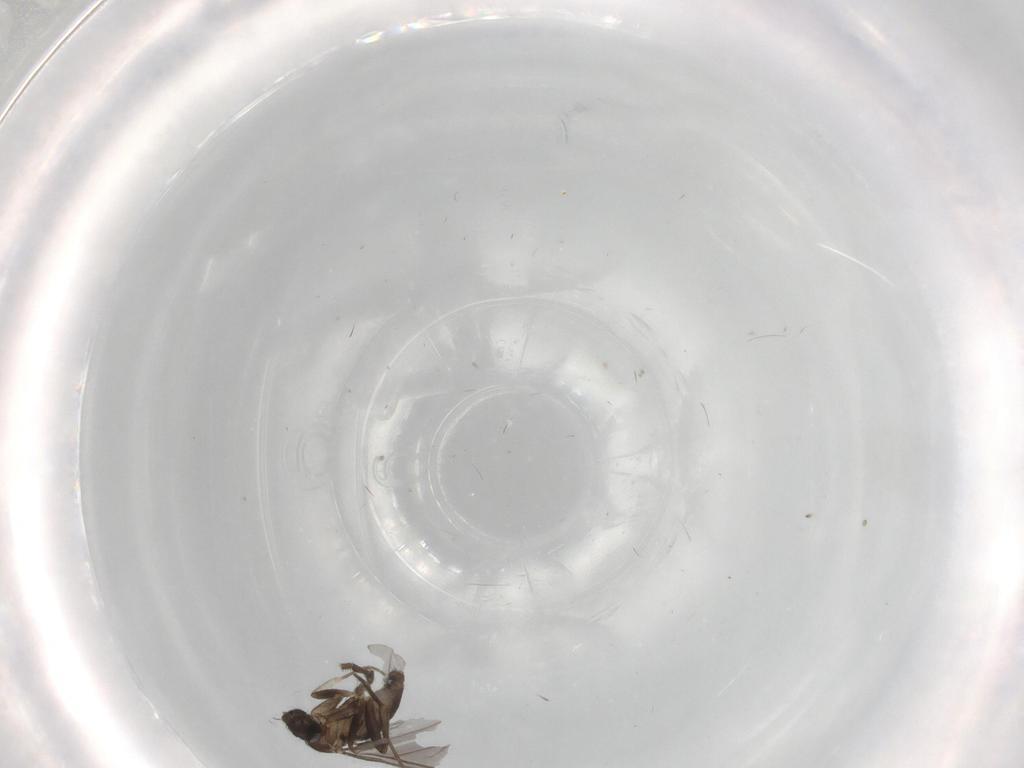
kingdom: Animalia
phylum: Arthropoda
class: Insecta
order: Diptera
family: Phoridae
